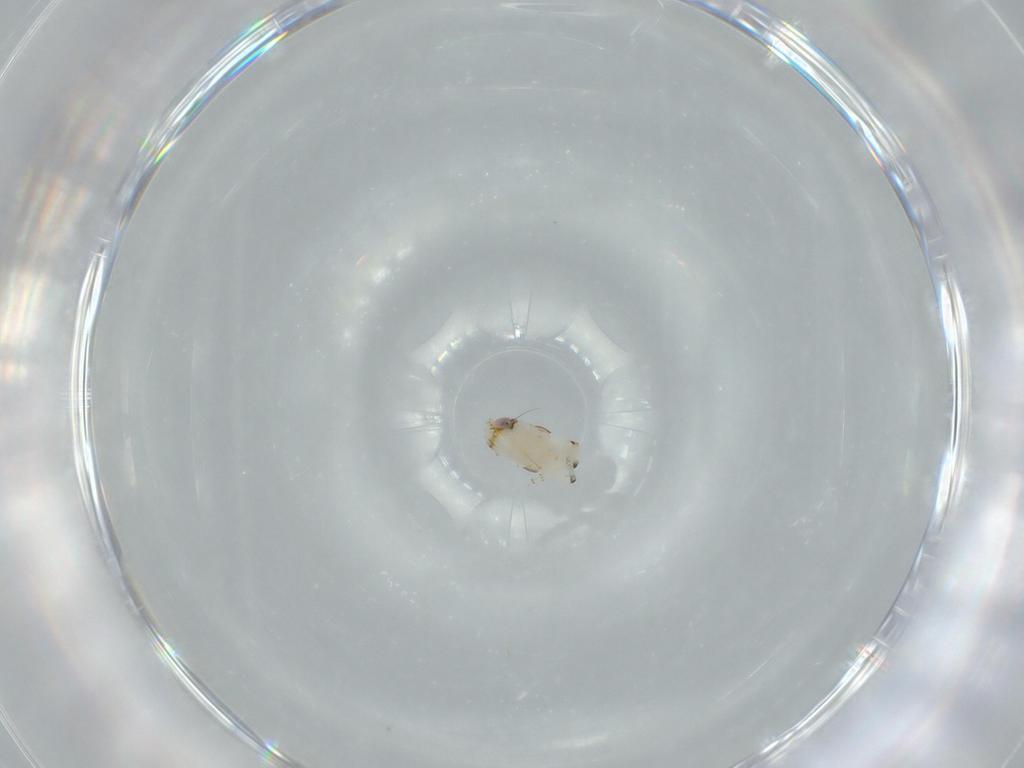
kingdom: Animalia
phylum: Arthropoda
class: Insecta
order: Hemiptera
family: Nogodinidae
